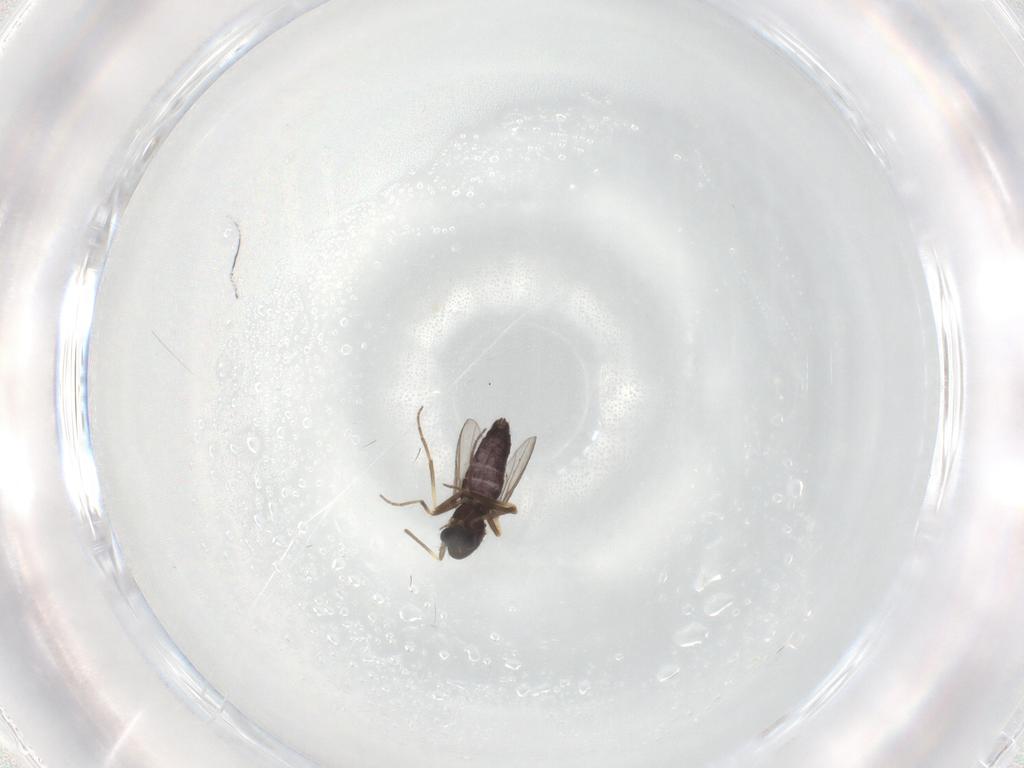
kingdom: Animalia
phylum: Arthropoda
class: Insecta
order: Diptera
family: Chironomidae
